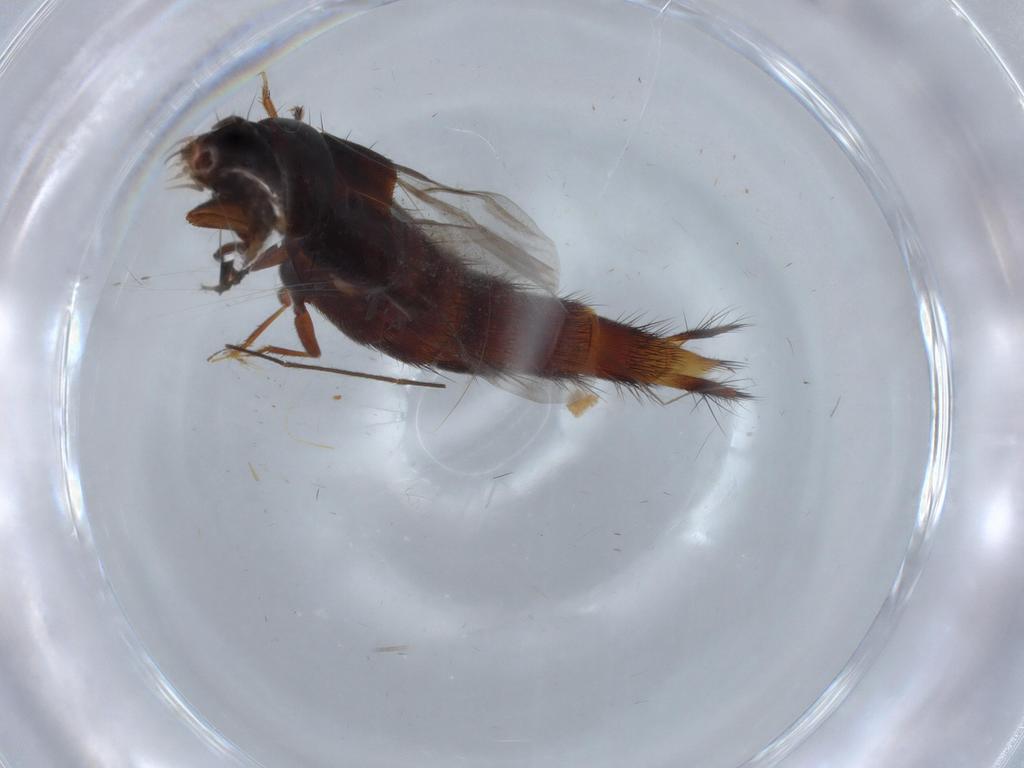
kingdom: Animalia
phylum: Arthropoda
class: Insecta
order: Coleoptera
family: Staphylinidae
